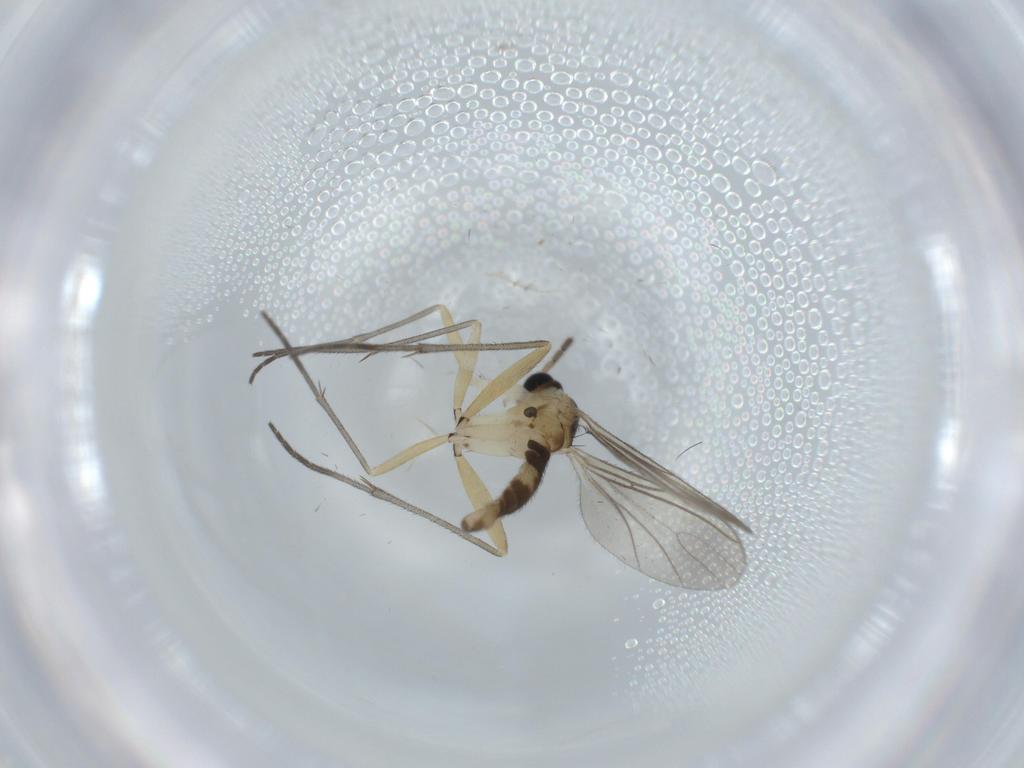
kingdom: Animalia
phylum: Arthropoda
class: Insecta
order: Diptera
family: Sciaridae
